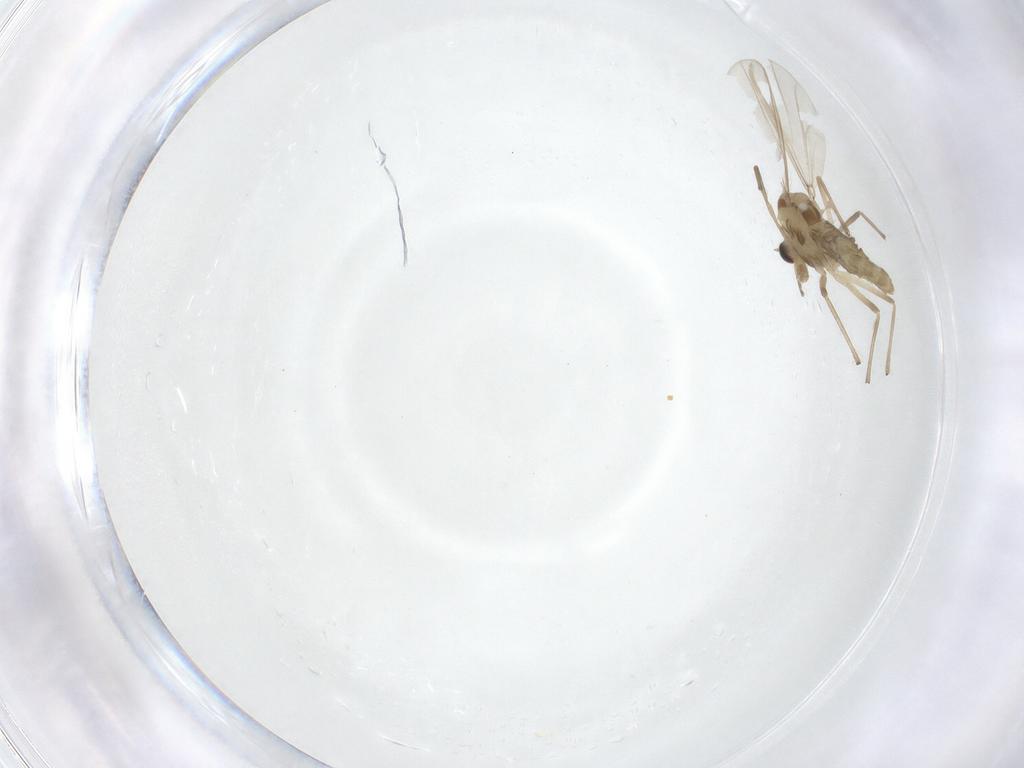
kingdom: Animalia
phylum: Arthropoda
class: Insecta
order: Diptera
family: Chironomidae
